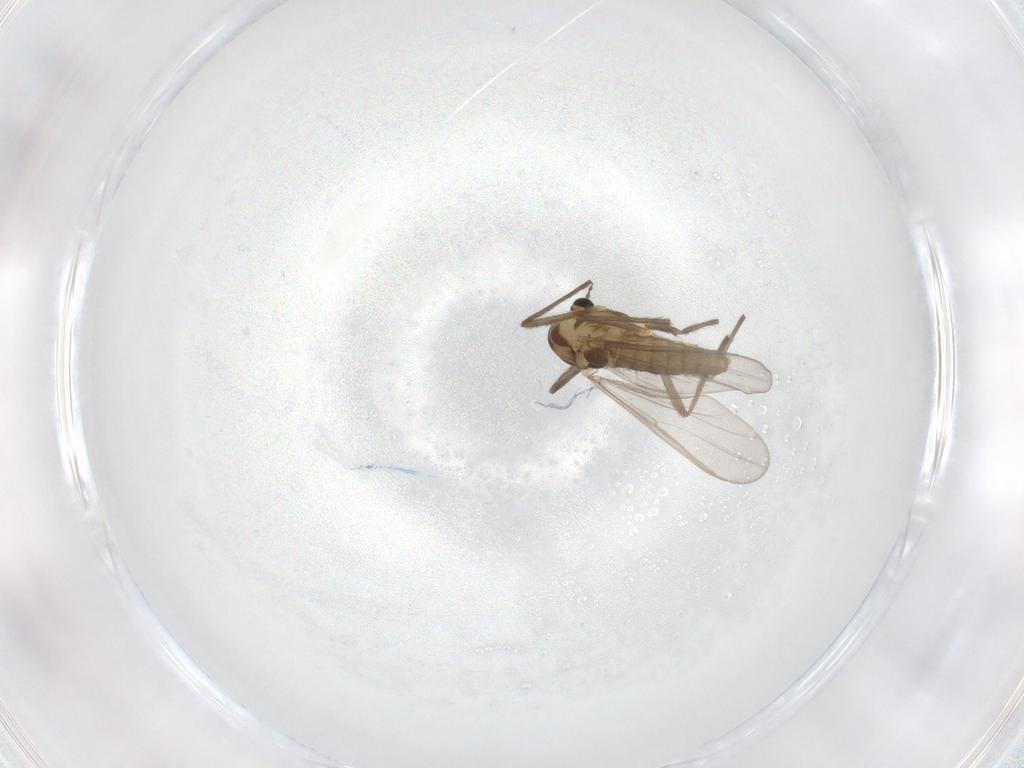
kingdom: Animalia
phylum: Arthropoda
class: Insecta
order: Diptera
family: Chironomidae
